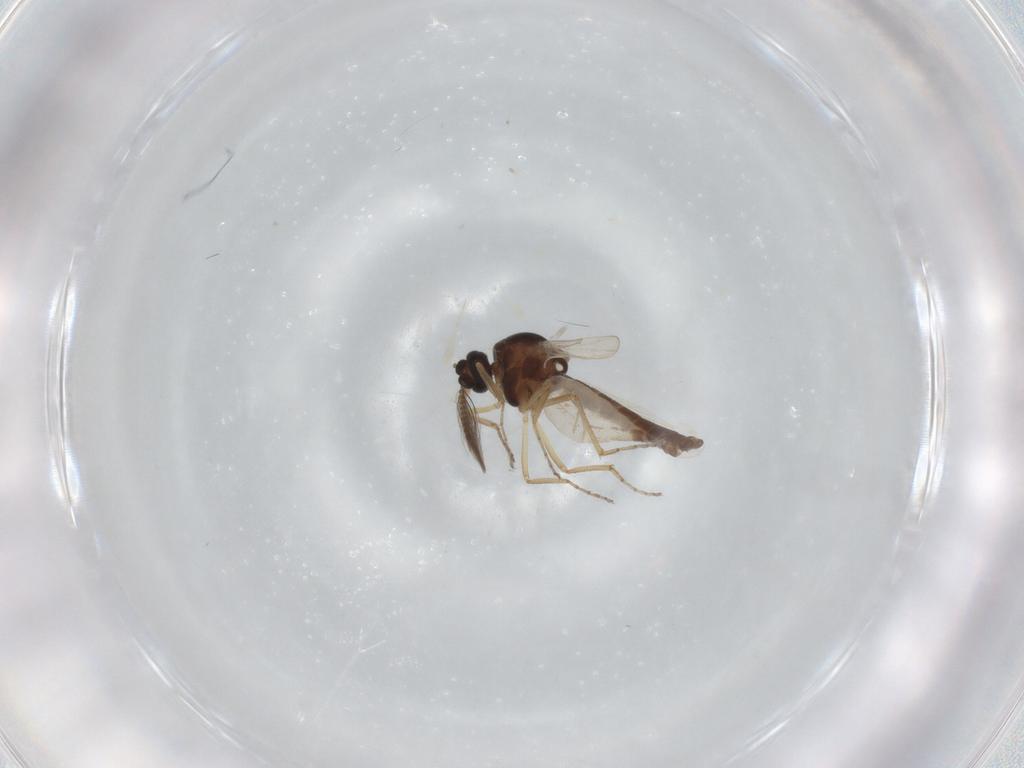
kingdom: Animalia
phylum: Arthropoda
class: Insecta
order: Diptera
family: Ceratopogonidae
